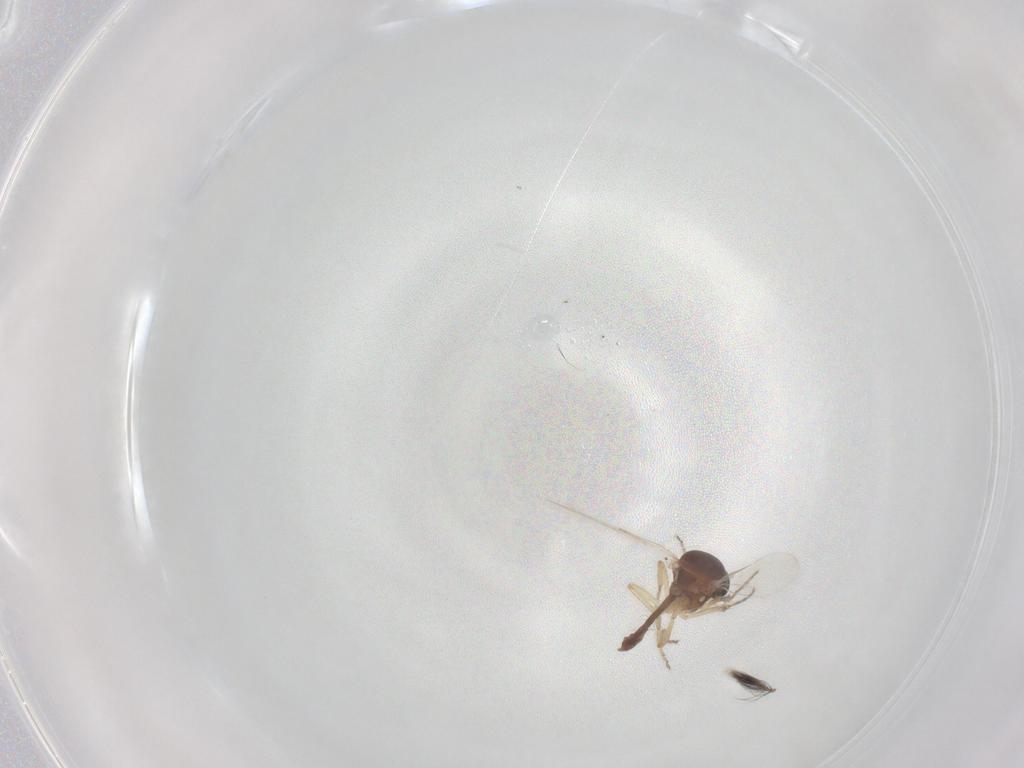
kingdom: Animalia
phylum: Arthropoda
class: Insecta
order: Diptera
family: Ceratopogonidae
